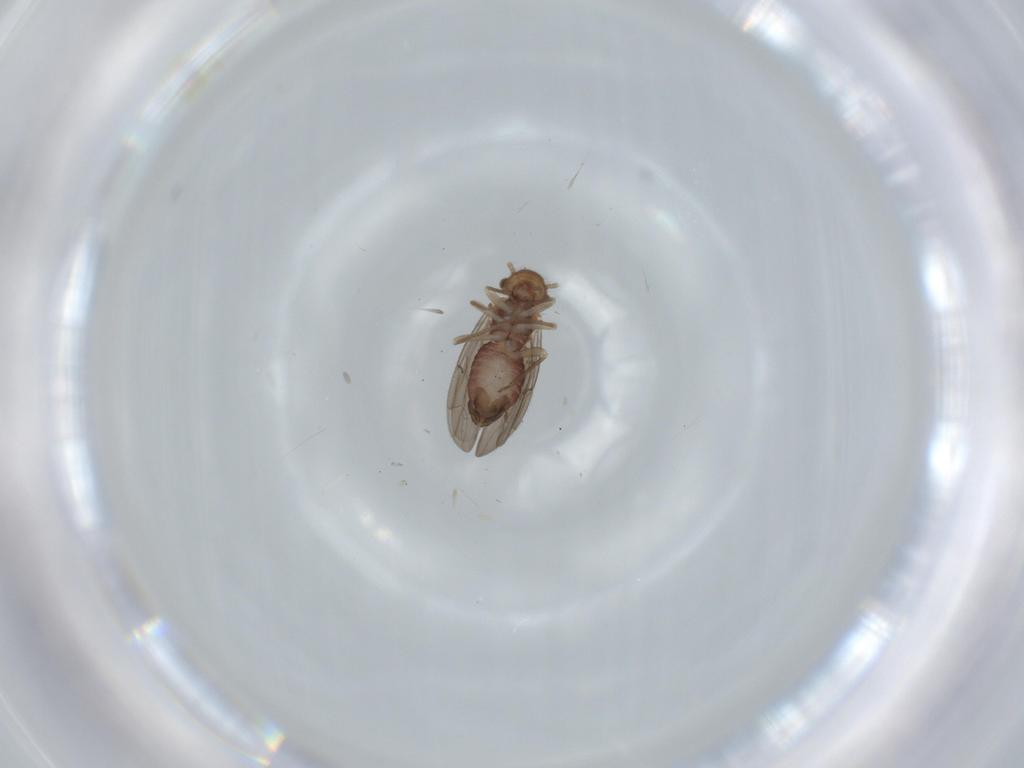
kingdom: Animalia
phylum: Arthropoda
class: Insecta
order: Psocodea
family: Ectopsocidae
